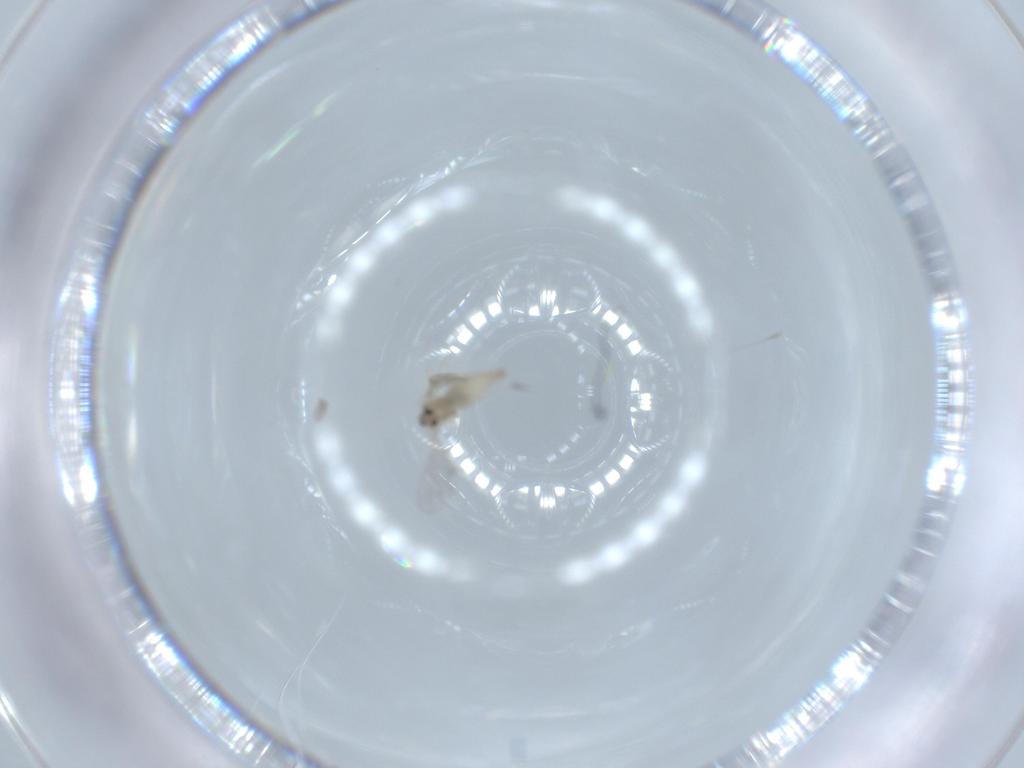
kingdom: Animalia
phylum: Arthropoda
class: Insecta
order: Diptera
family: Cecidomyiidae
